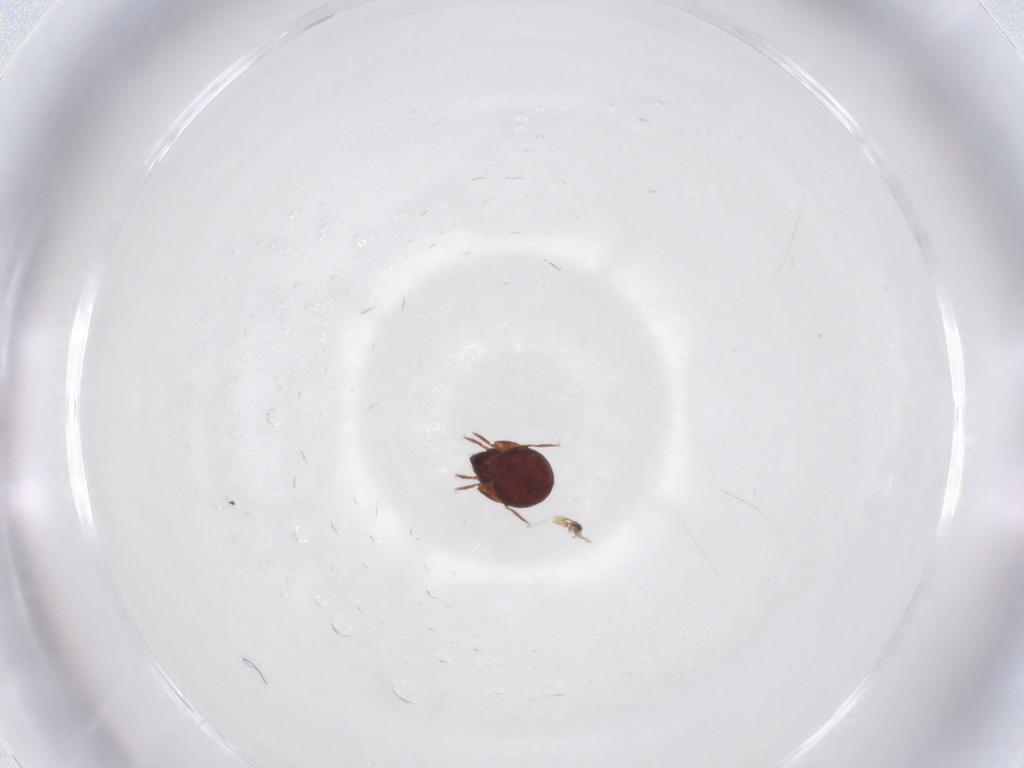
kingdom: Animalia
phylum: Arthropoda
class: Arachnida
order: Sarcoptiformes
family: Humerobatidae
